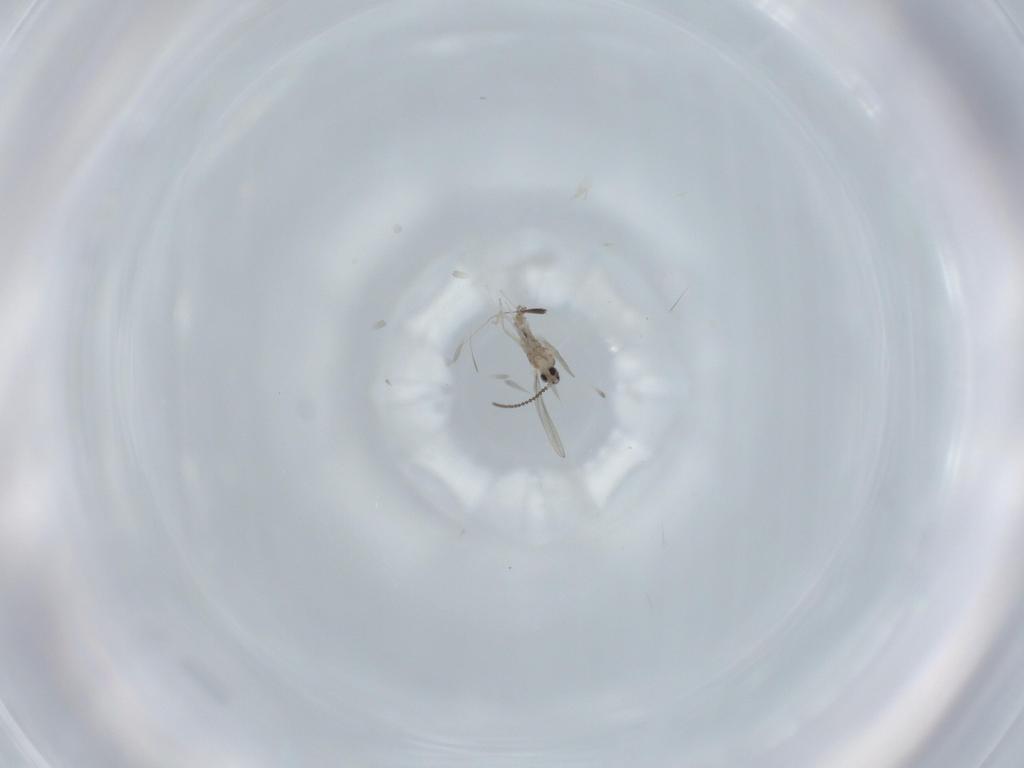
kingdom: Animalia
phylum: Arthropoda
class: Insecta
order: Diptera
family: Cecidomyiidae
